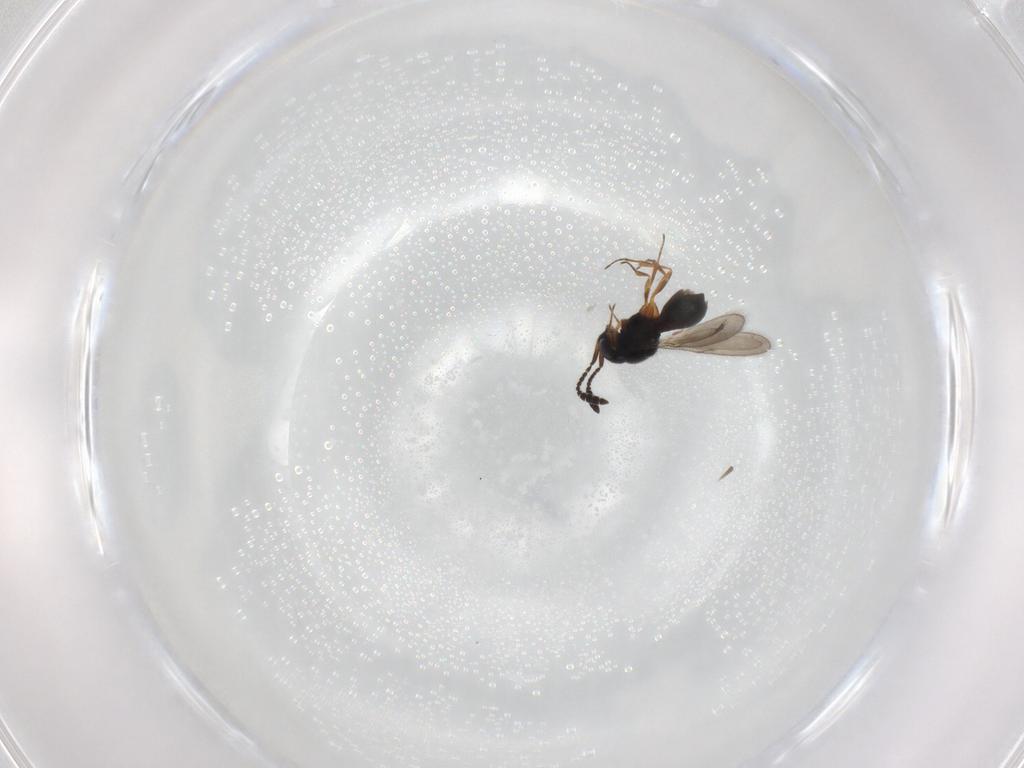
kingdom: Animalia
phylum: Arthropoda
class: Insecta
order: Hymenoptera
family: Scelionidae
